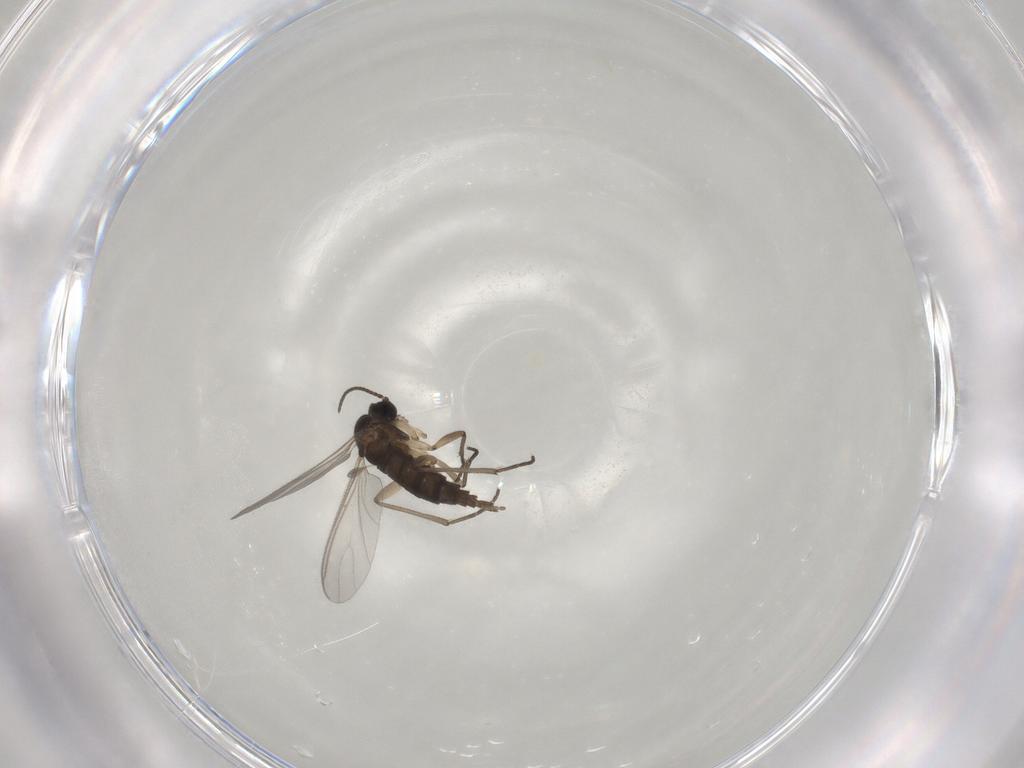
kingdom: Animalia
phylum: Arthropoda
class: Insecta
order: Diptera
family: Sciaridae
